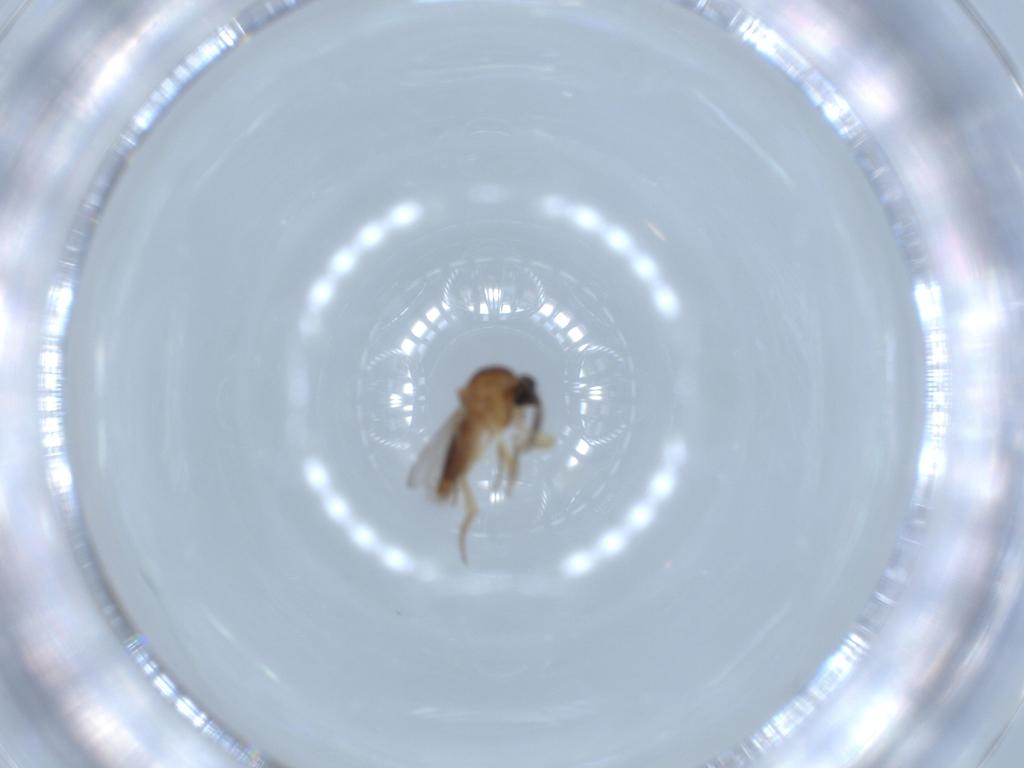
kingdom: Animalia
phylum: Arthropoda
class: Insecta
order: Diptera
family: Ceratopogonidae
